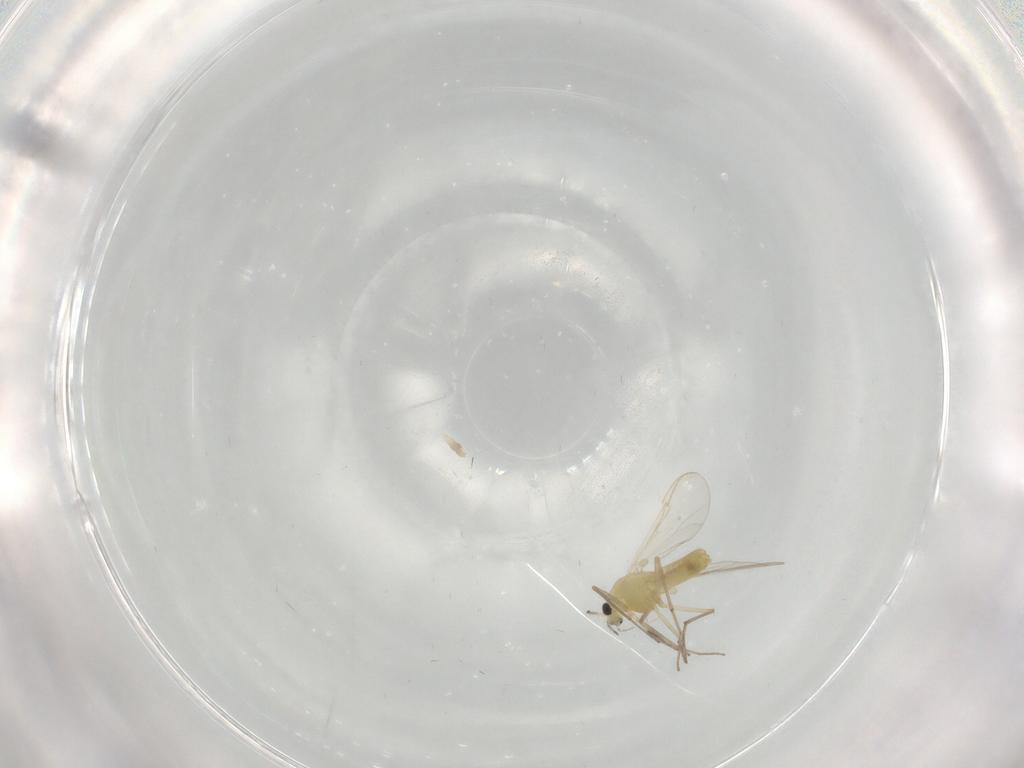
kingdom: Animalia
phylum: Arthropoda
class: Insecta
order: Diptera
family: Chironomidae
